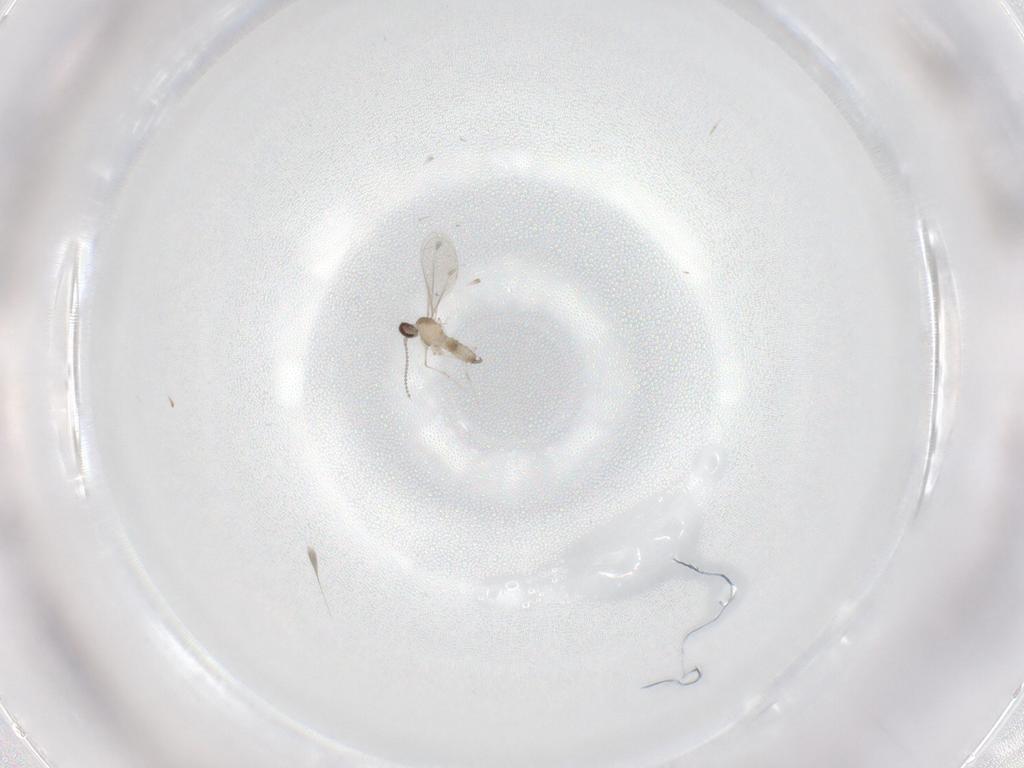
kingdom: Animalia
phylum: Arthropoda
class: Insecta
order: Diptera
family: Cecidomyiidae
